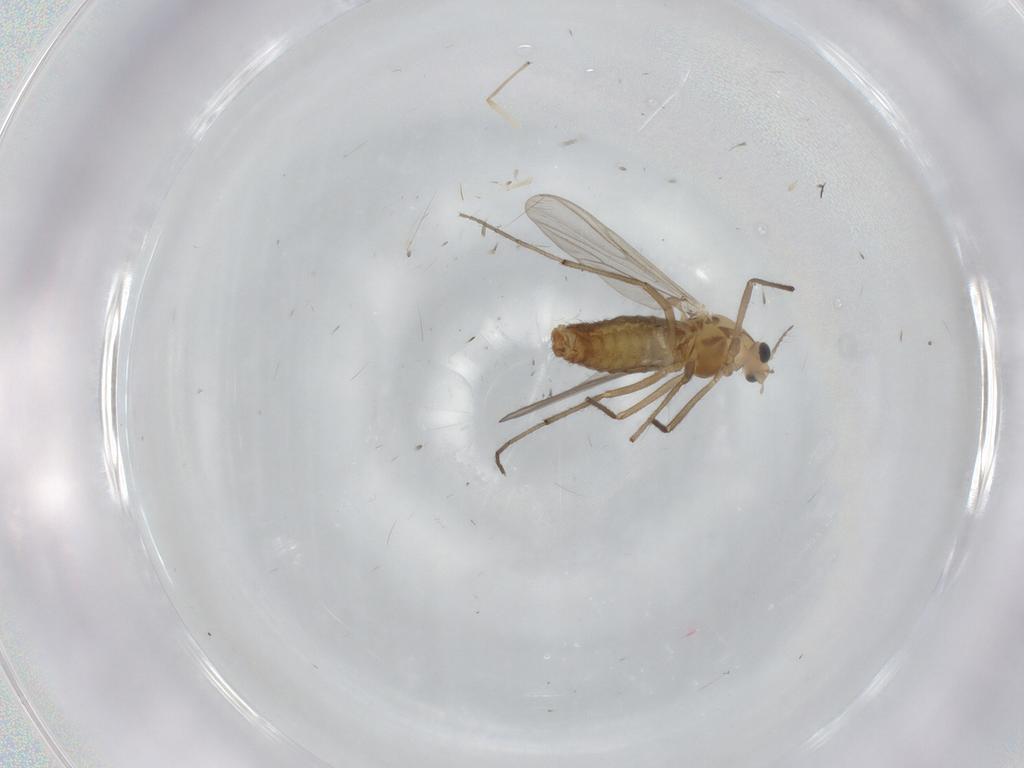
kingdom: Animalia
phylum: Arthropoda
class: Insecta
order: Diptera
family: Chironomidae
